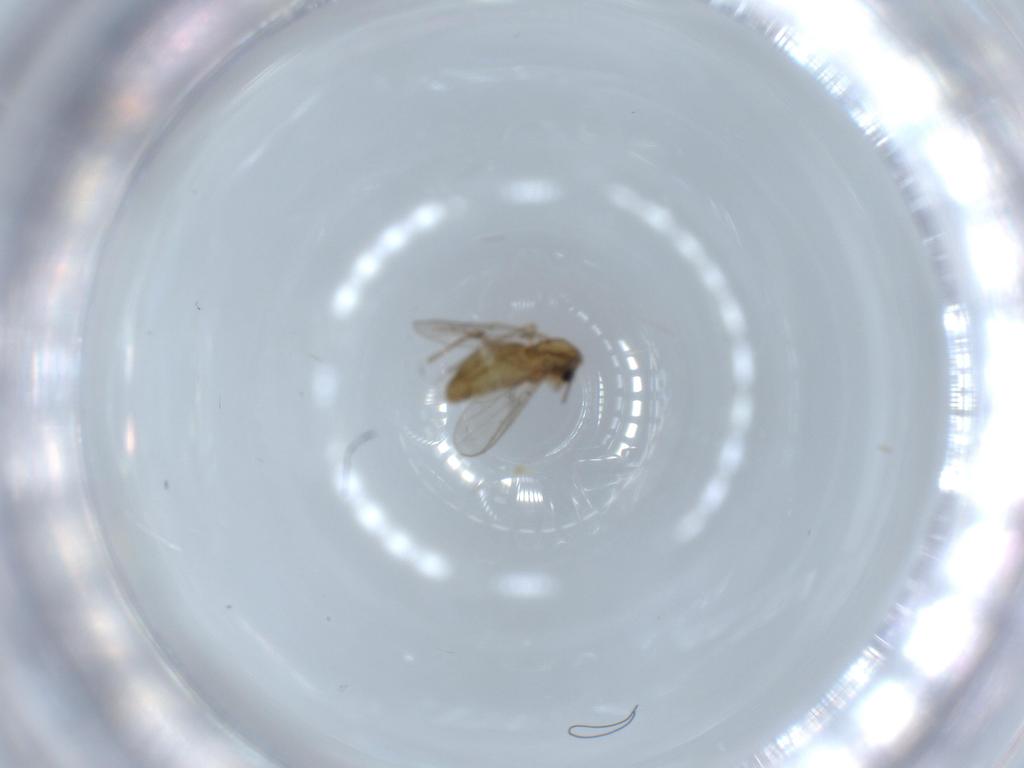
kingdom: Animalia
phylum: Arthropoda
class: Insecta
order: Diptera
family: Chironomidae
